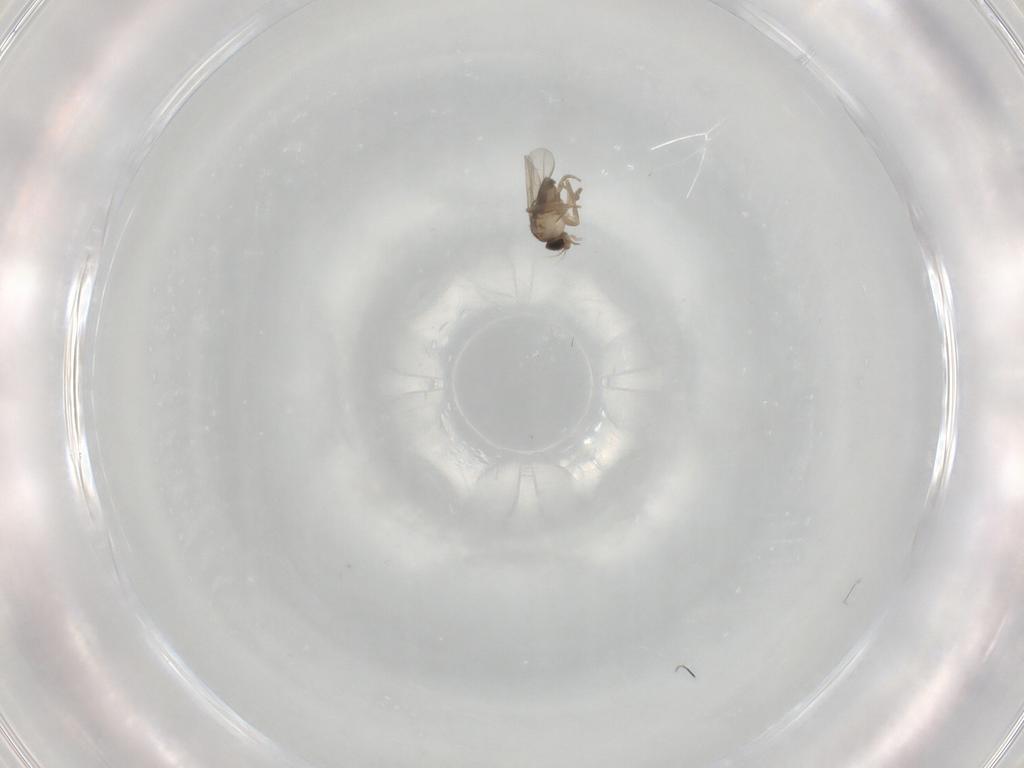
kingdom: Animalia
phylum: Arthropoda
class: Insecta
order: Diptera
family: Phoridae
